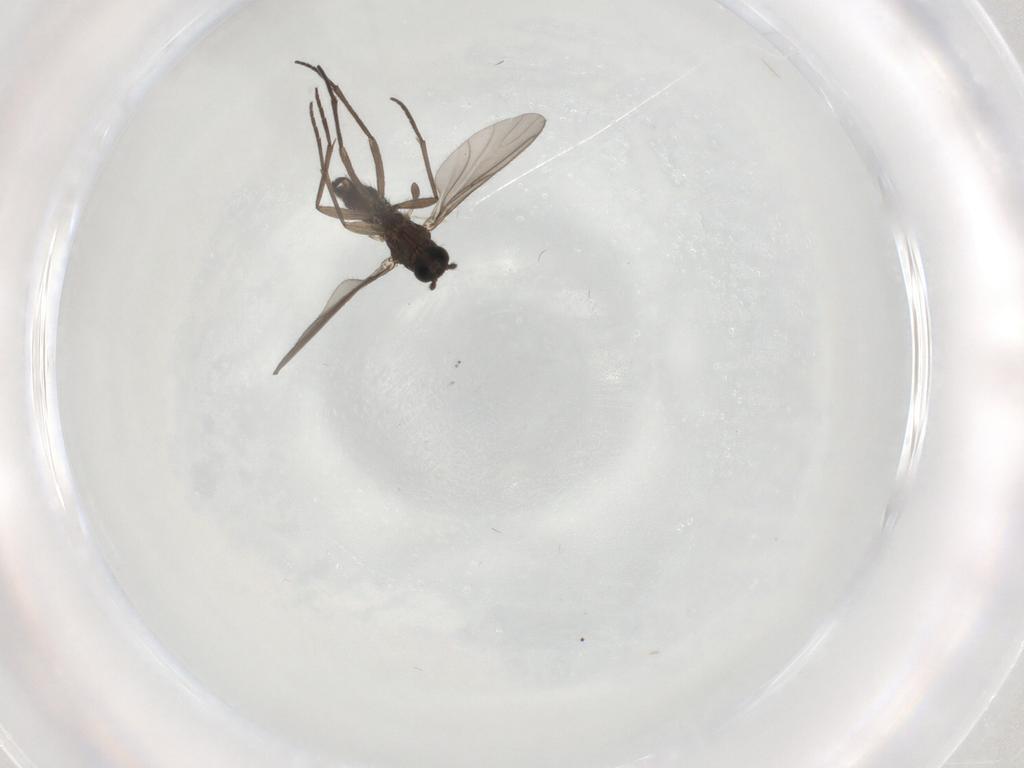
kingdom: Animalia
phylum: Arthropoda
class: Insecta
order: Diptera
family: Sciaridae
